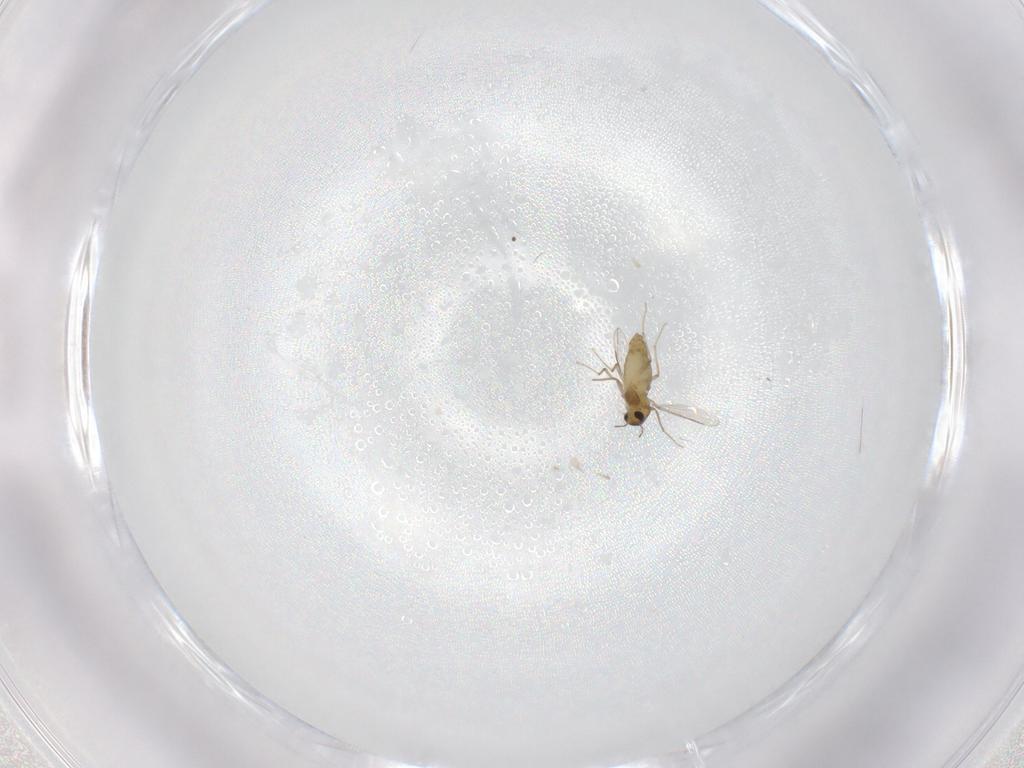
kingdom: Animalia
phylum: Arthropoda
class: Insecta
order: Diptera
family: Chironomidae
